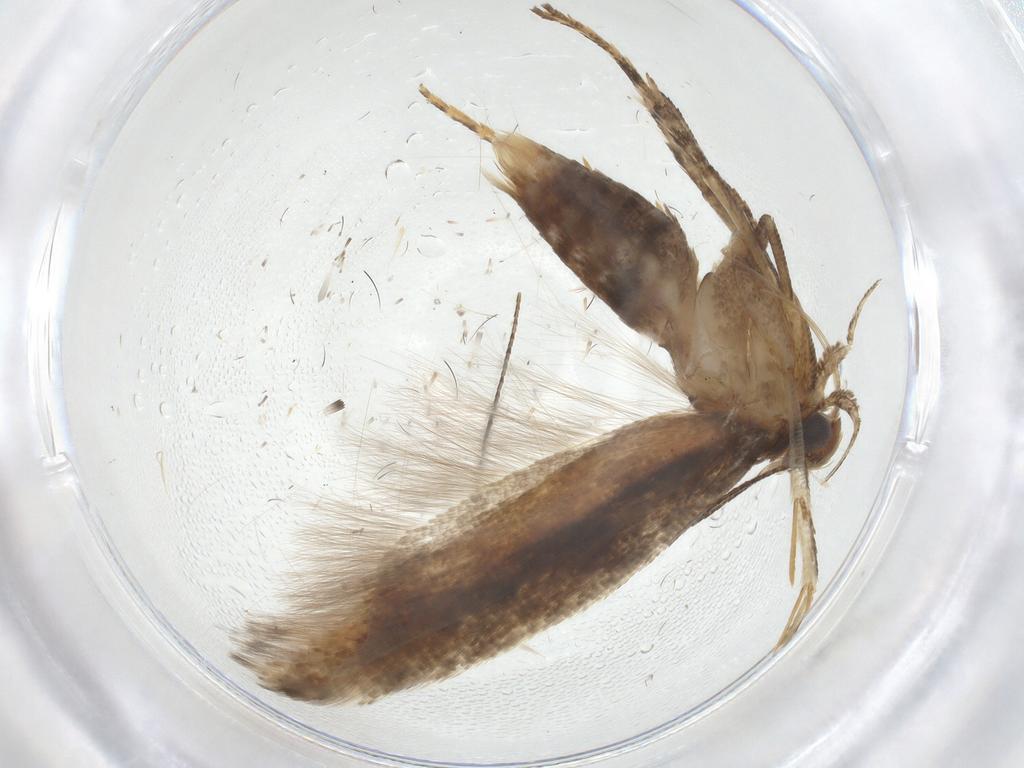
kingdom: Animalia
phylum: Arthropoda
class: Insecta
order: Lepidoptera
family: Gelechiidae
